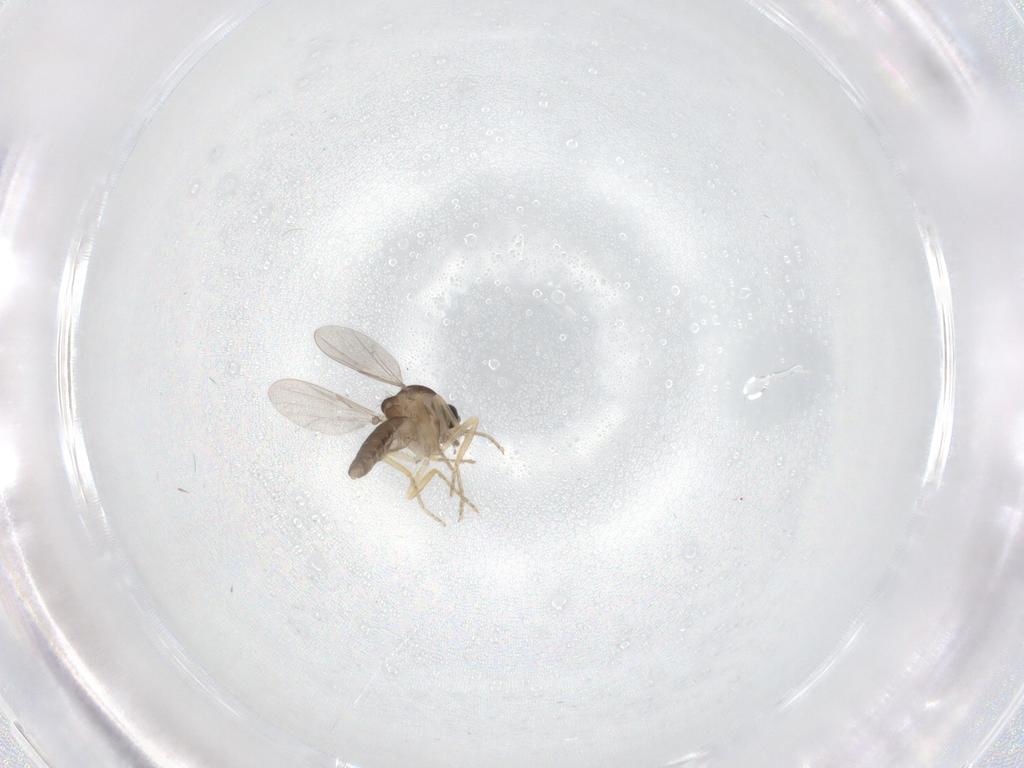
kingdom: Animalia
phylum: Arthropoda
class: Insecta
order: Diptera
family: Ceratopogonidae
